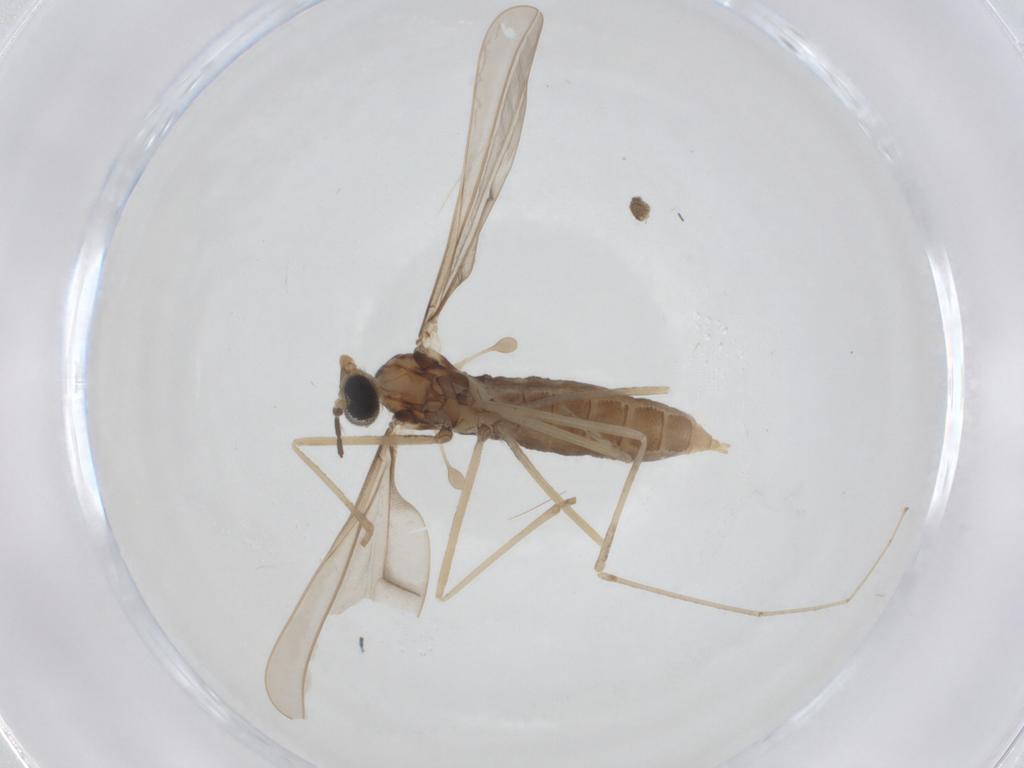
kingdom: Animalia
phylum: Arthropoda
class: Insecta
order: Diptera
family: Cecidomyiidae
